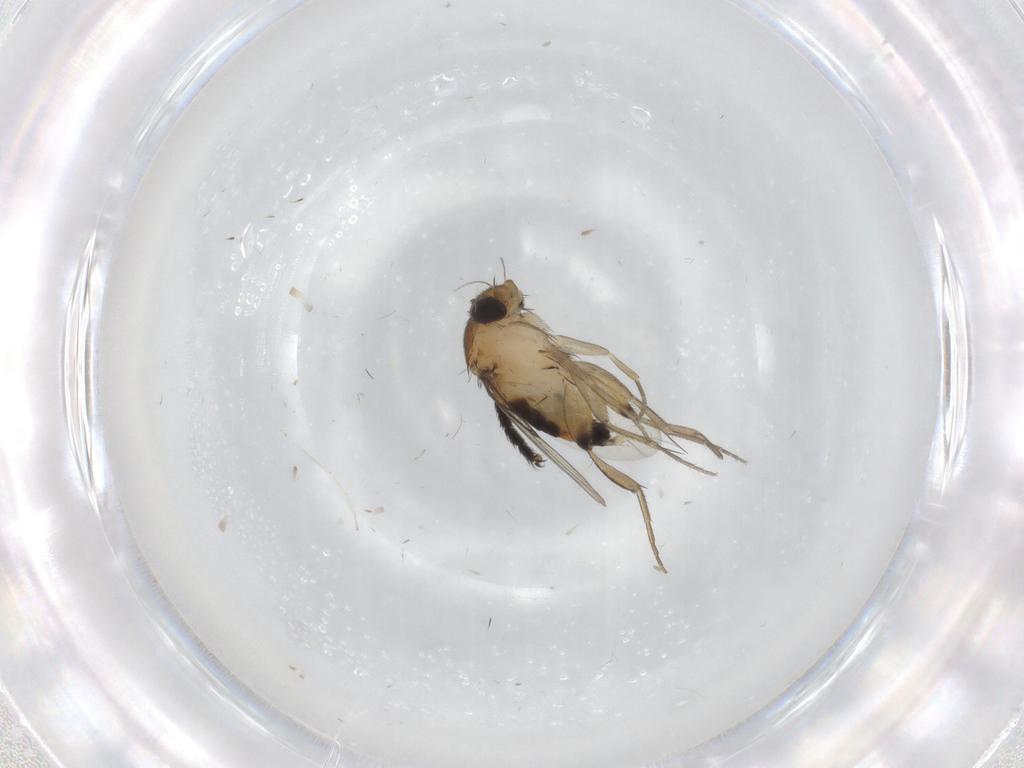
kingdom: Animalia
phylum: Arthropoda
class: Insecta
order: Diptera
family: Phoridae
